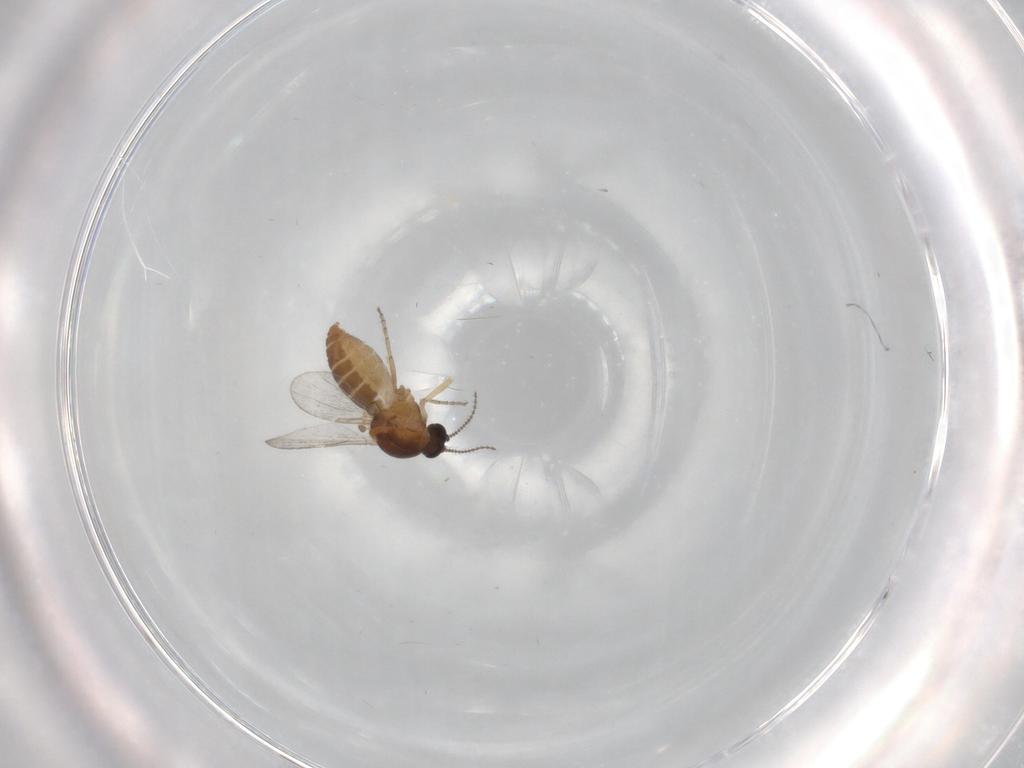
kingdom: Animalia
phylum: Arthropoda
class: Insecta
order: Diptera
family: Ceratopogonidae
